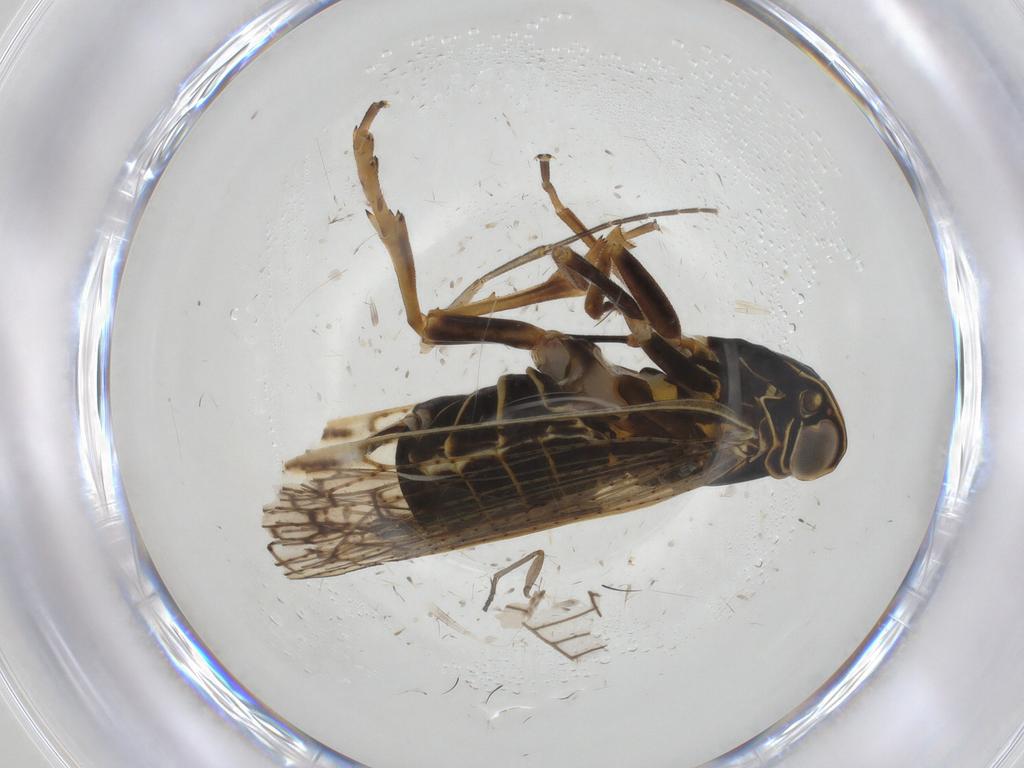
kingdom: Animalia
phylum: Arthropoda
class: Insecta
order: Hemiptera
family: Cixiidae
